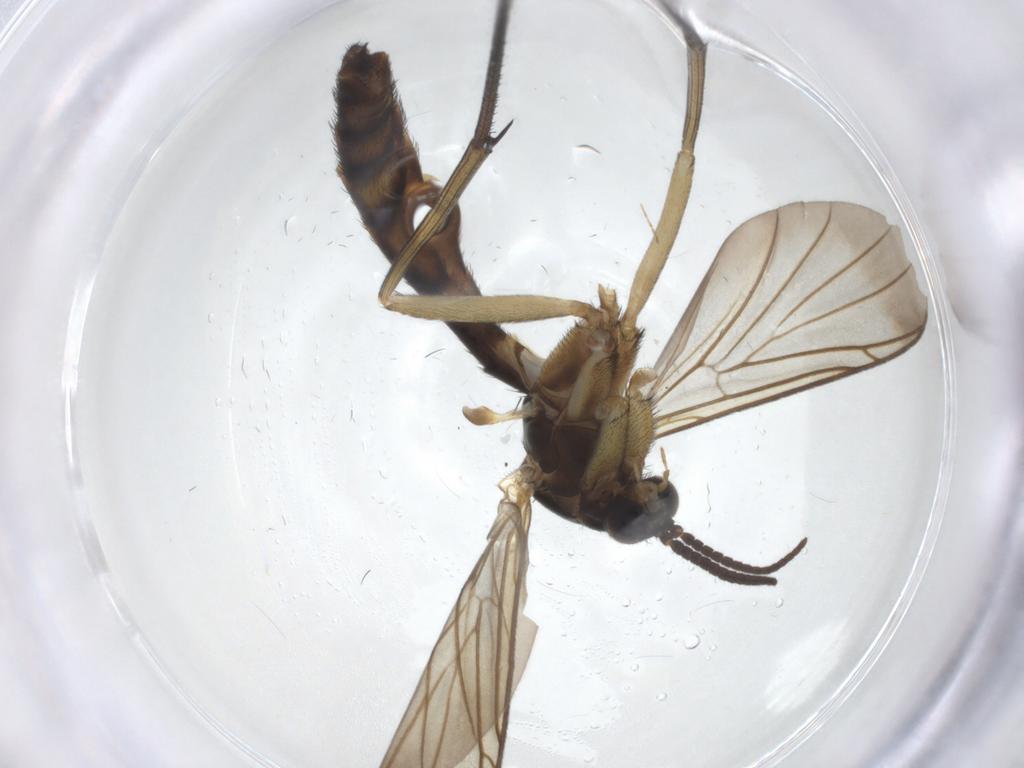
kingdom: Animalia
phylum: Arthropoda
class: Insecta
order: Diptera
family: Keroplatidae
